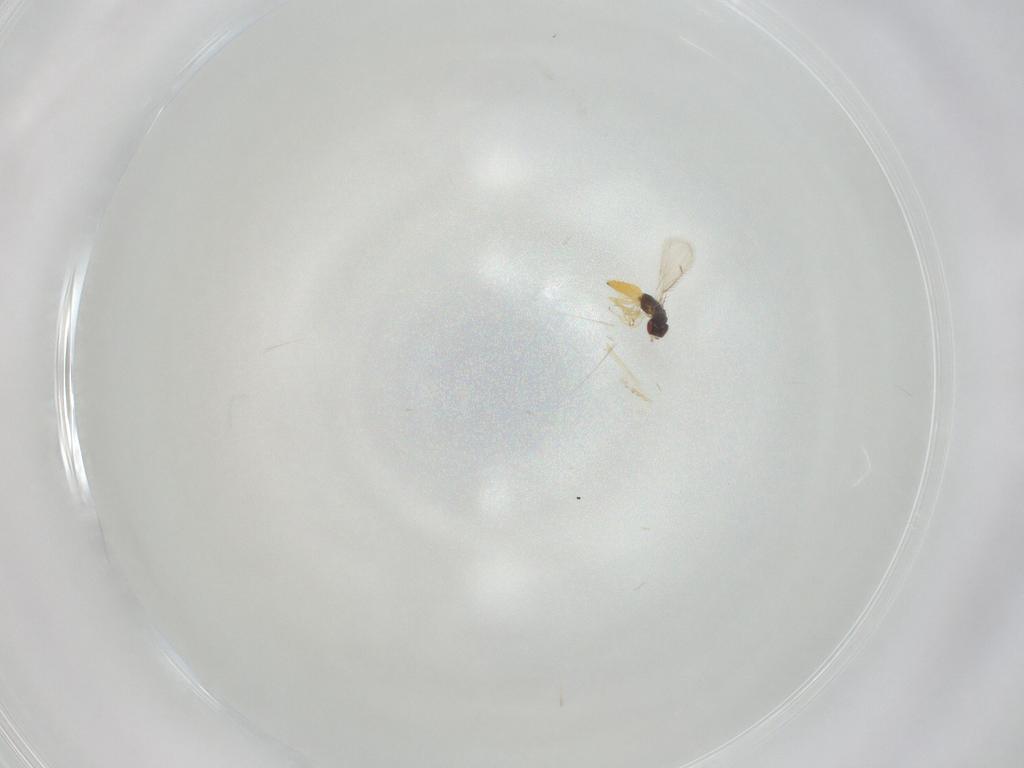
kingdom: Animalia
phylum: Arthropoda
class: Insecta
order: Hymenoptera
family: Eulophidae
